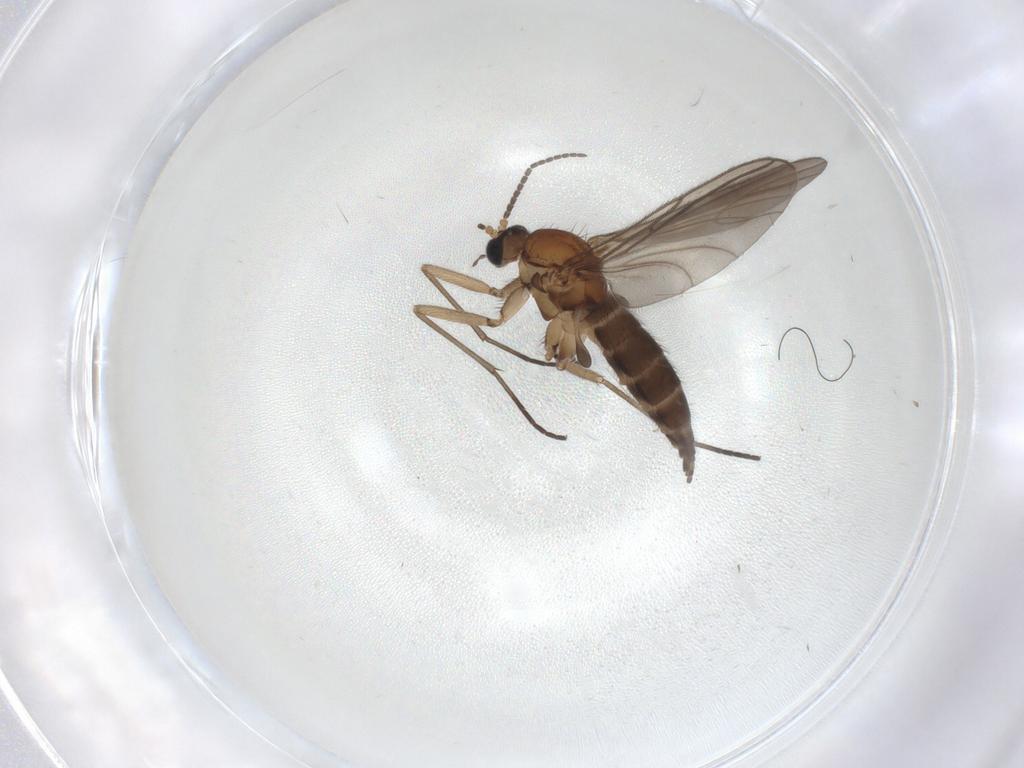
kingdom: Animalia
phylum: Arthropoda
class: Insecta
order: Diptera
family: Sciaridae
